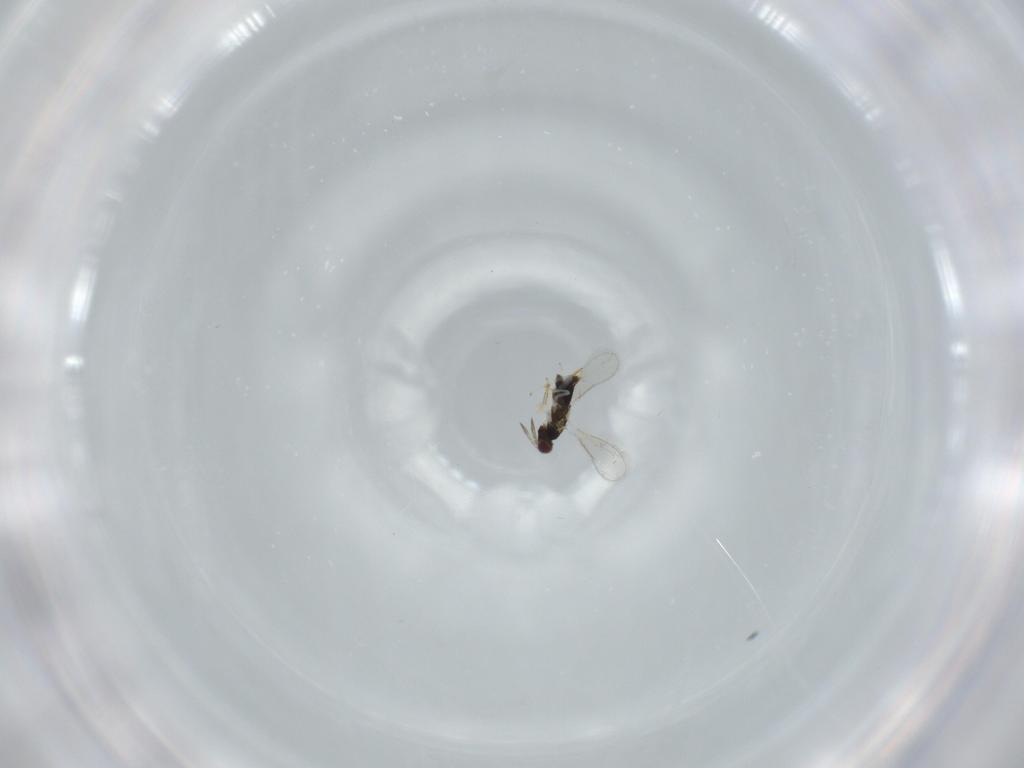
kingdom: Animalia
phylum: Arthropoda
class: Insecta
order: Hymenoptera
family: Aphelinidae
